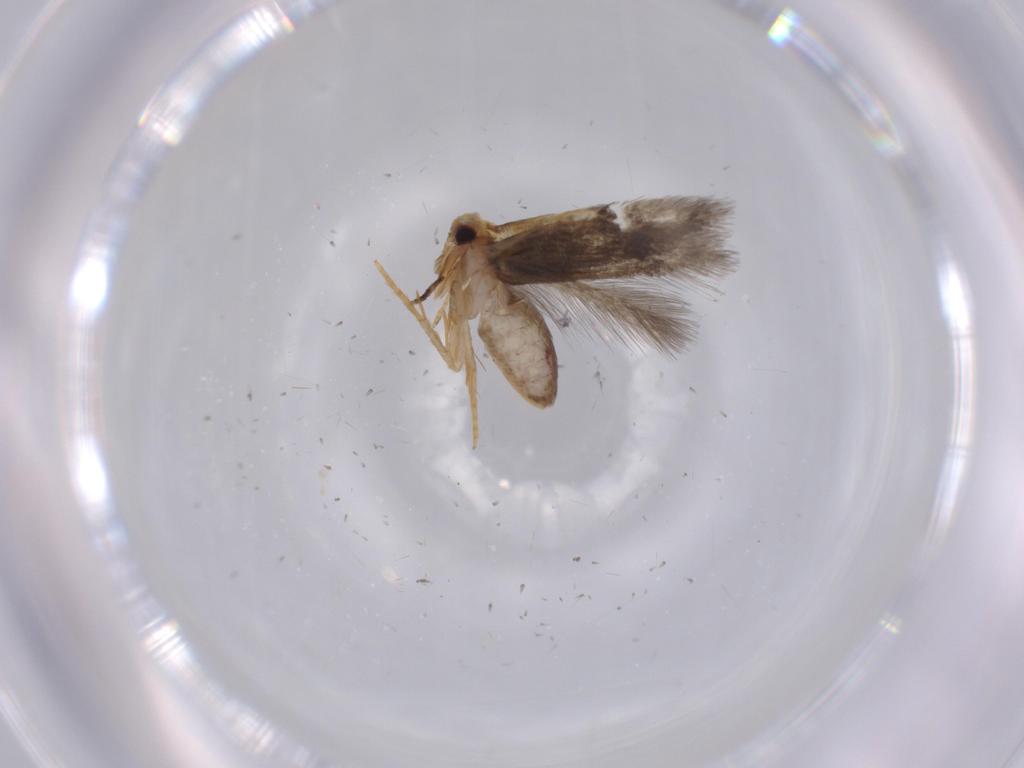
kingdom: Animalia
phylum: Arthropoda
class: Insecta
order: Lepidoptera
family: Nepticulidae
